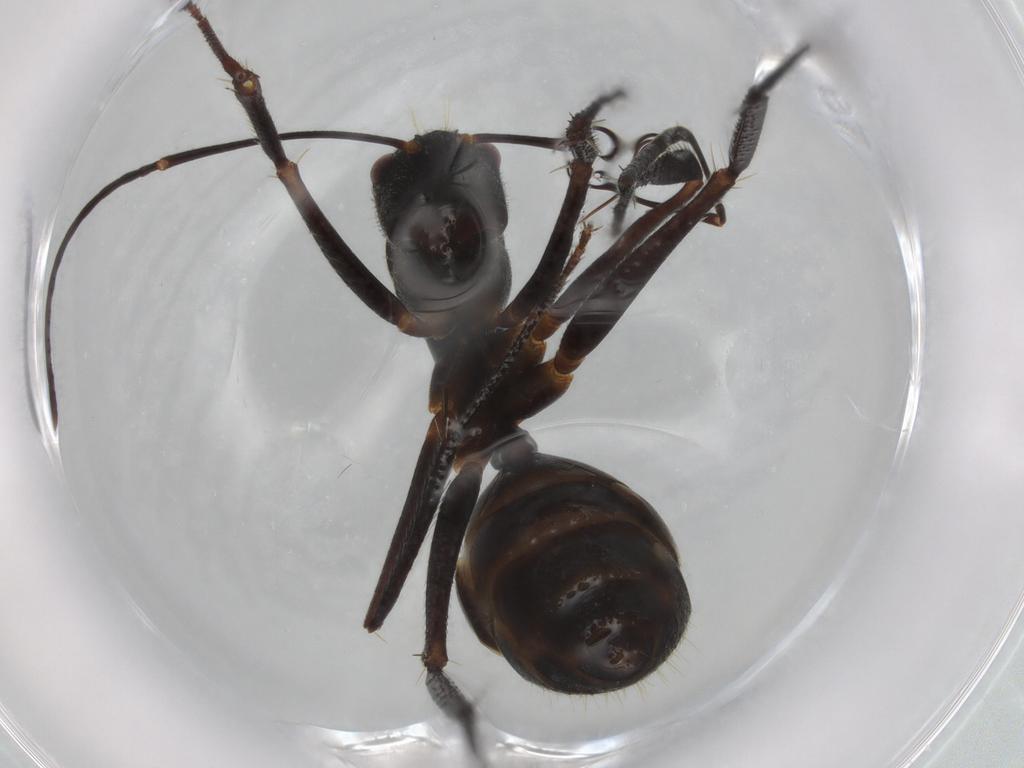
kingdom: Animalia
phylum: Arthropoda
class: Insecta
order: Hymenoptera
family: Formicidae
